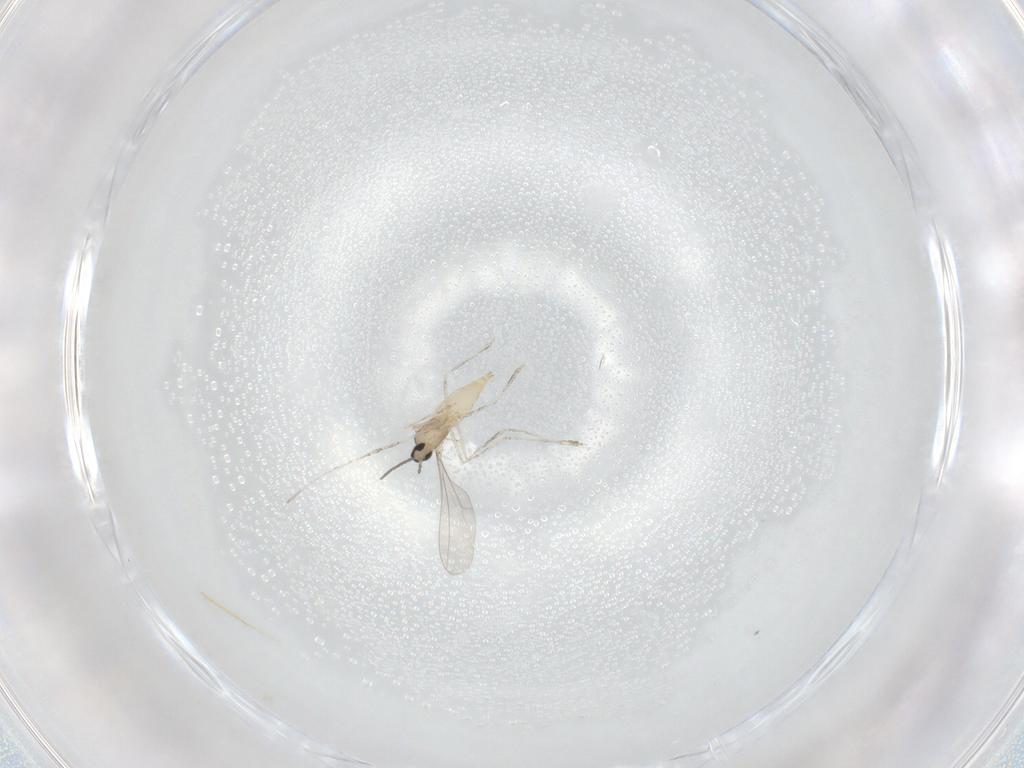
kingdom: Animalia
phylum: Arthropoda
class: Insecta
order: Diptera
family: Cecidomyiidae
